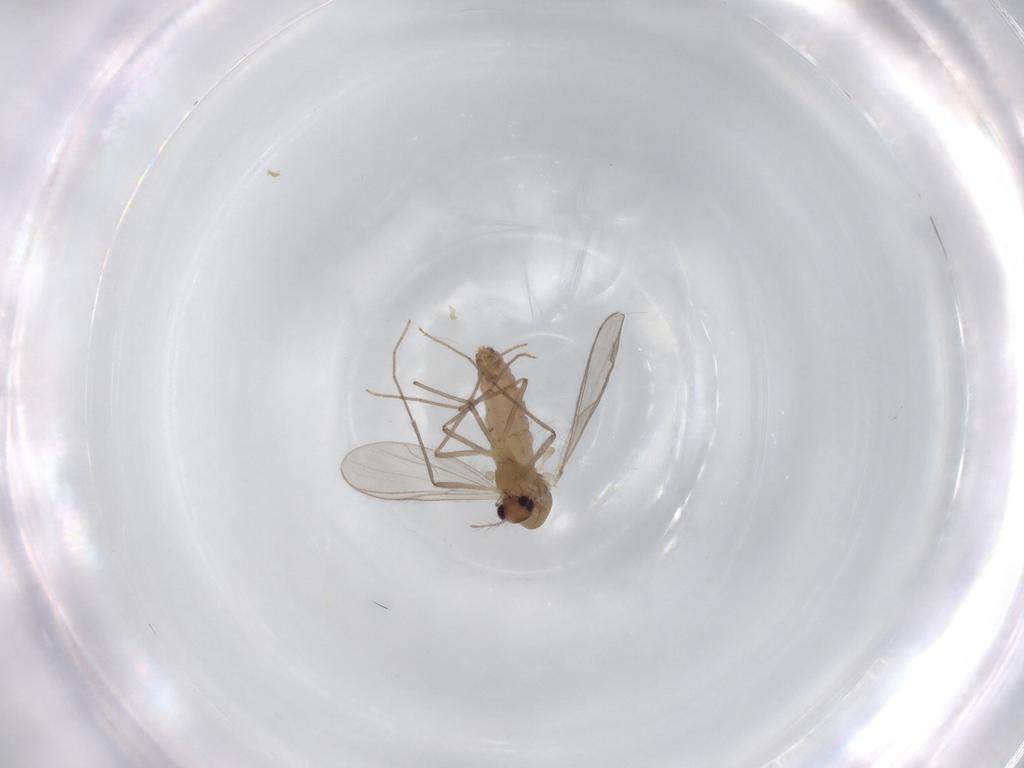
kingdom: Animalia
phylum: Arthropoda
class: Insecta
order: Diptera
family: Chironomidae
